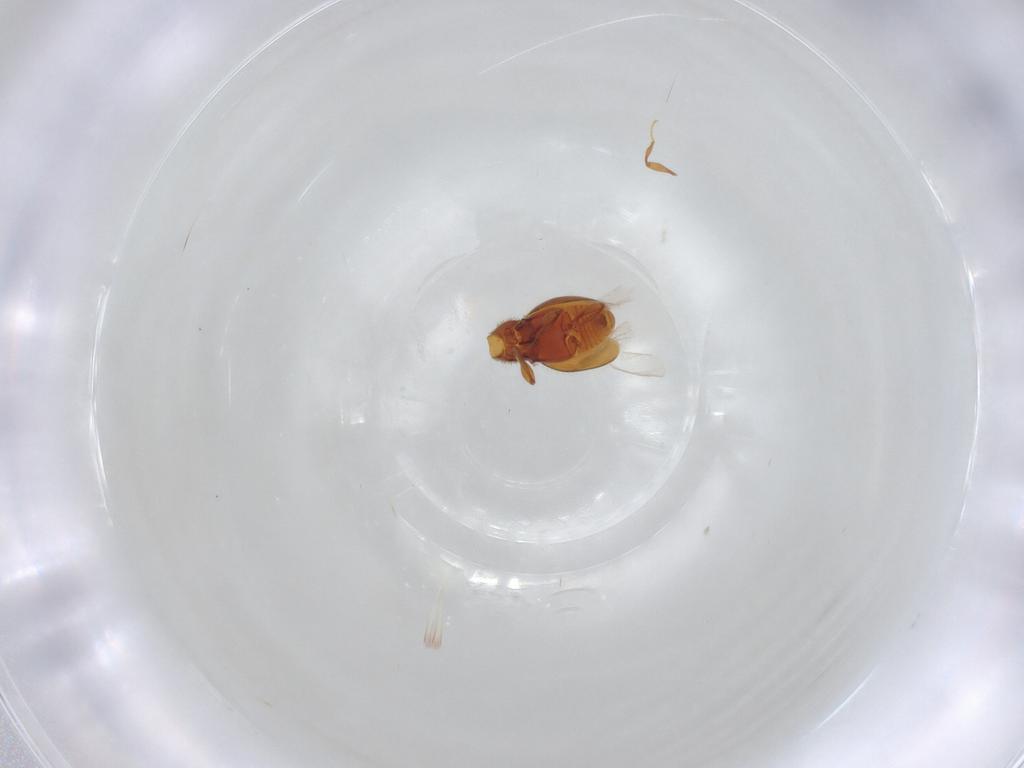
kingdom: Animalia
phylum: Arthropoda
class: Insecta
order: Coleoptera
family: Staphylinidae
